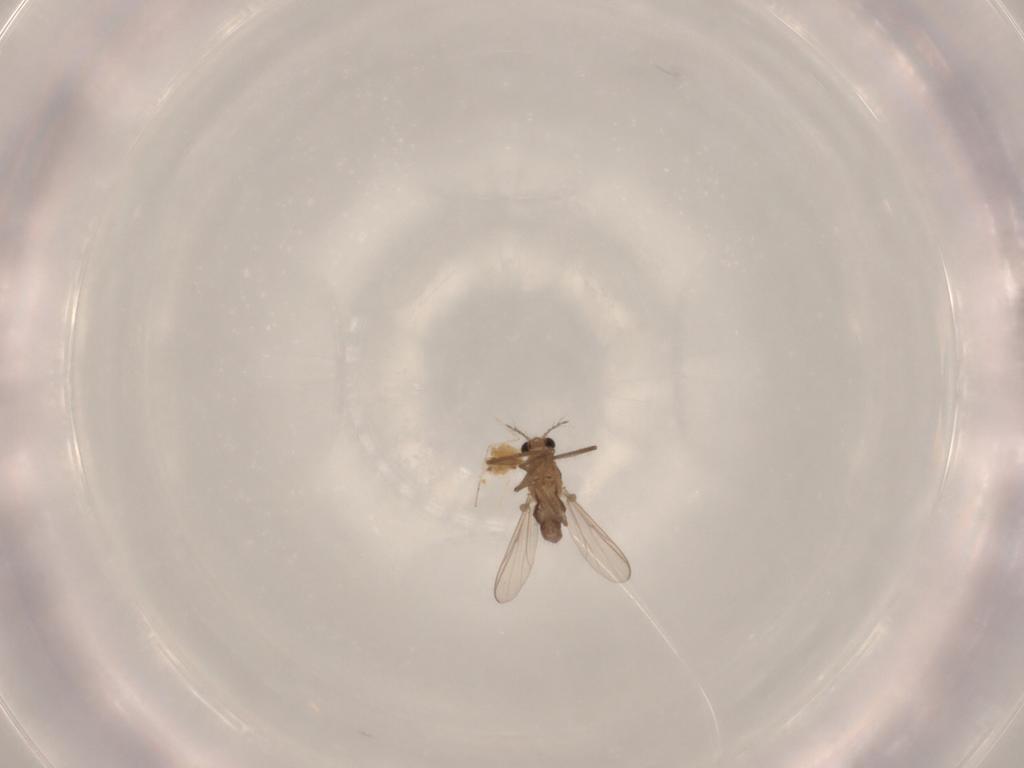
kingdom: Animalia
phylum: Arthropoda
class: Insecta
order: Diptera
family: Chironomidae
